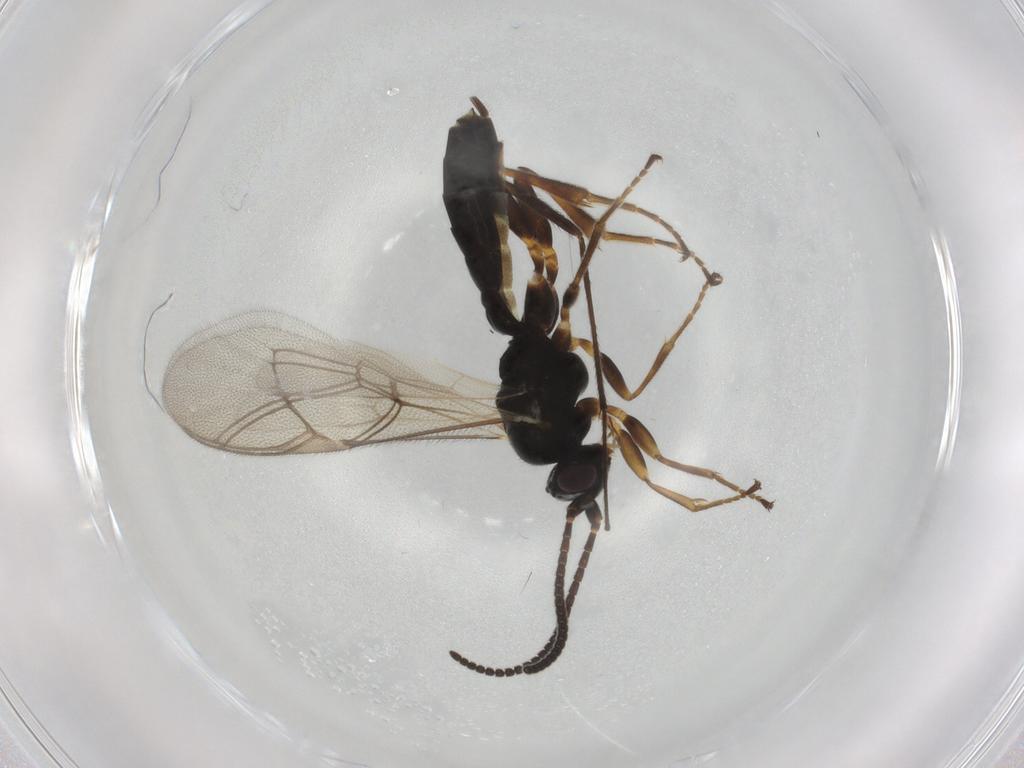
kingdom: Animalia
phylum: Arthropoda
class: Insecta
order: Hymenoptera
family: Ichneumonidae
